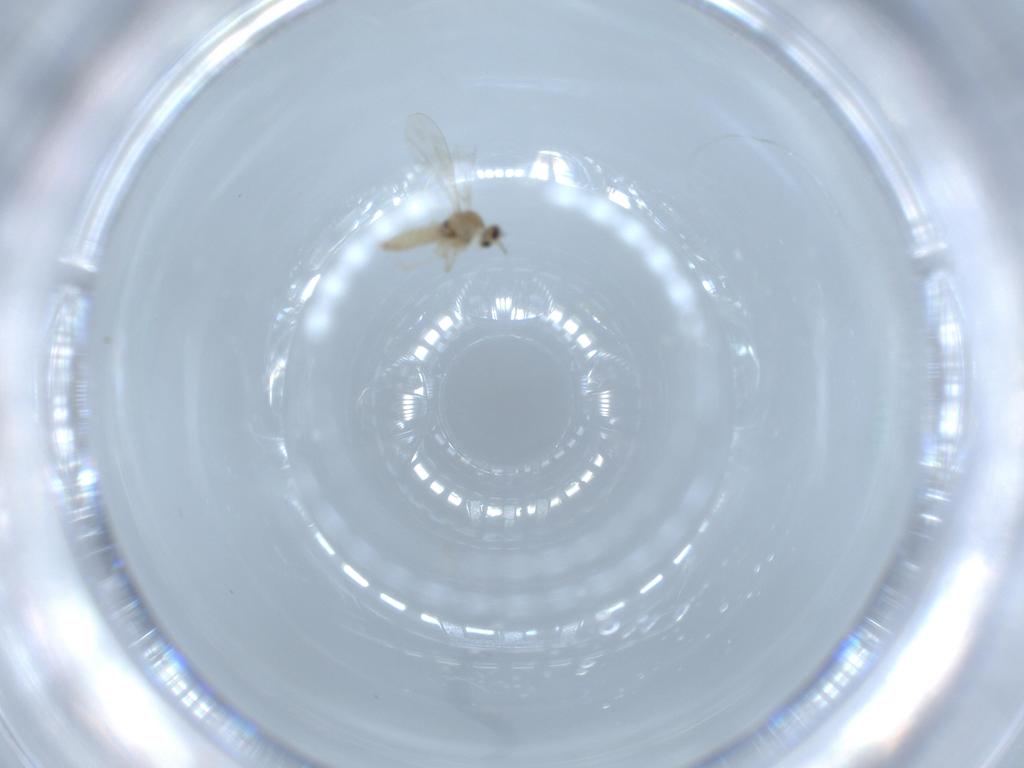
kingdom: Animalia
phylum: Arthropoda
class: Insecta
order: Diptera
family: Cecidomyiidae
